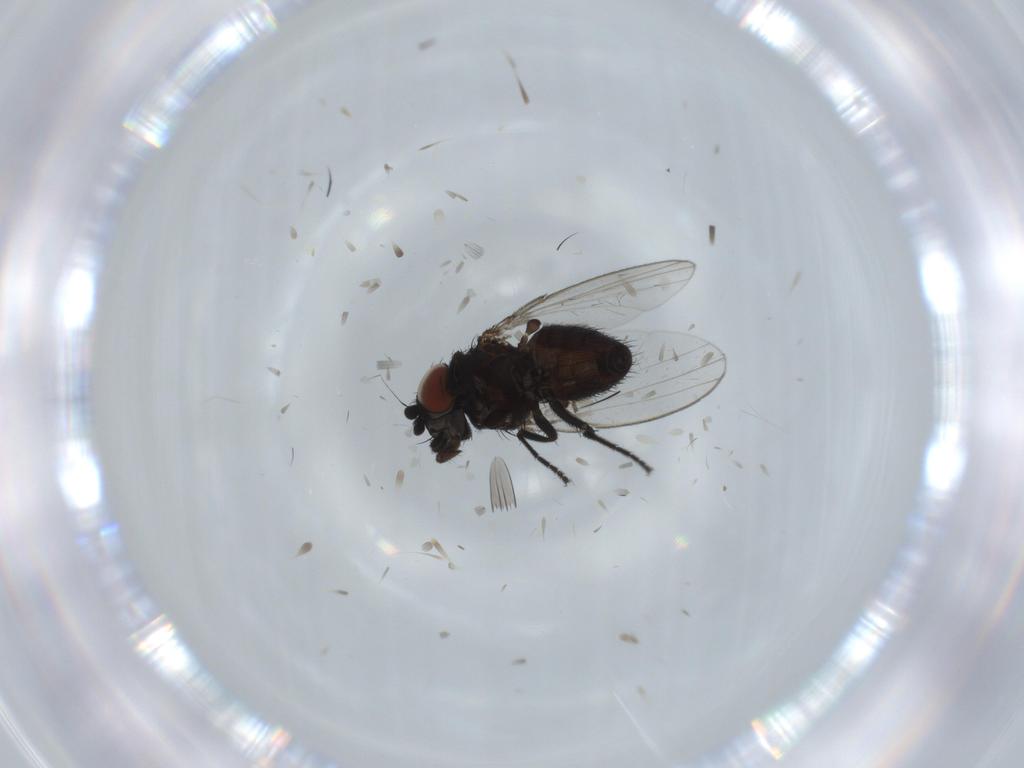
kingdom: Animalia
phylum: Arthropoda
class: Insecta
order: Diptera
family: Milichiidae
